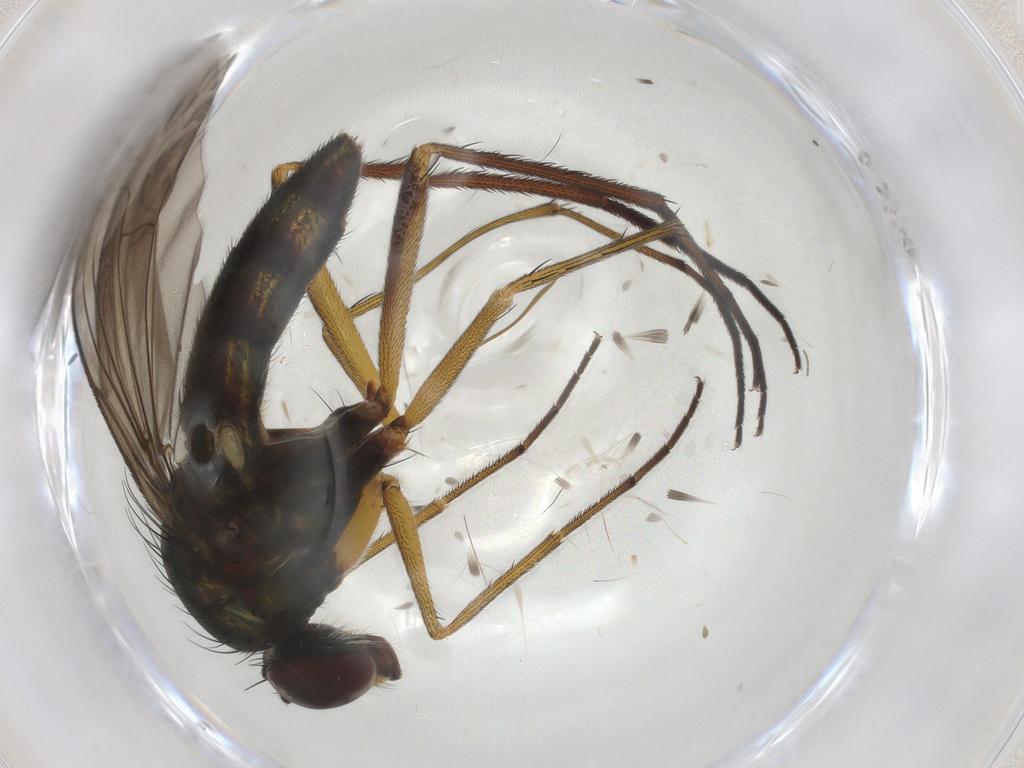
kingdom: Animalia
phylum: Arthropoda
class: Insecta
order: Diptera
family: Dolichopodidae
